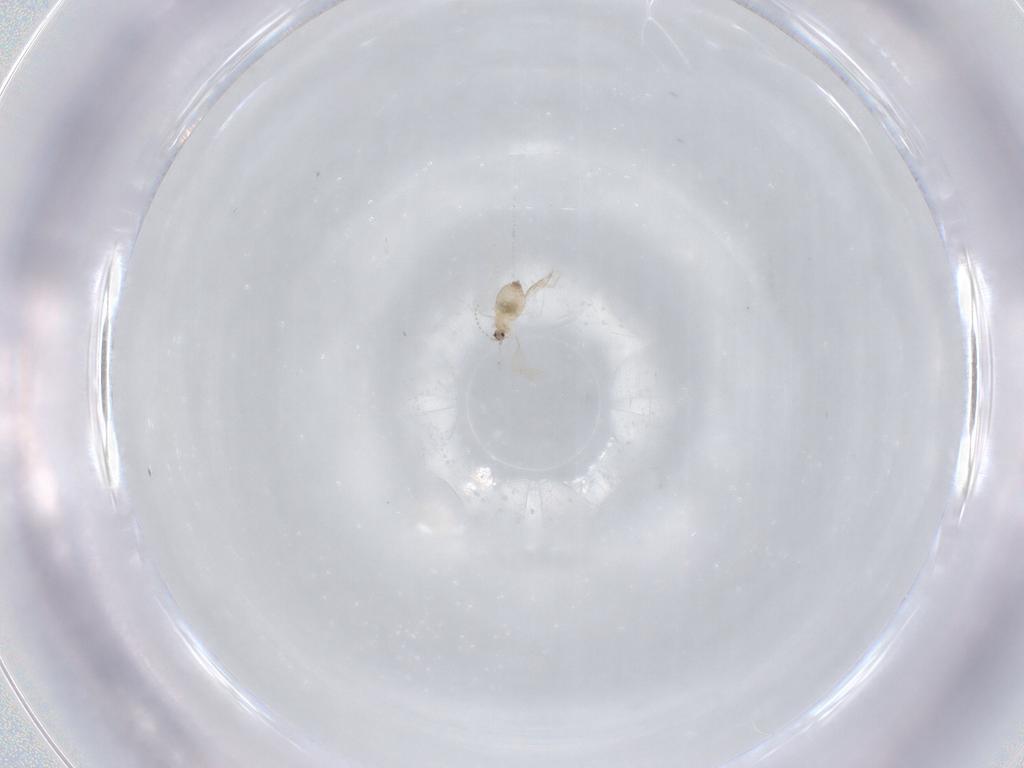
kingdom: Animalia
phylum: Arthropoda
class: Insecta
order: Diptera
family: Cecidomyiidae
